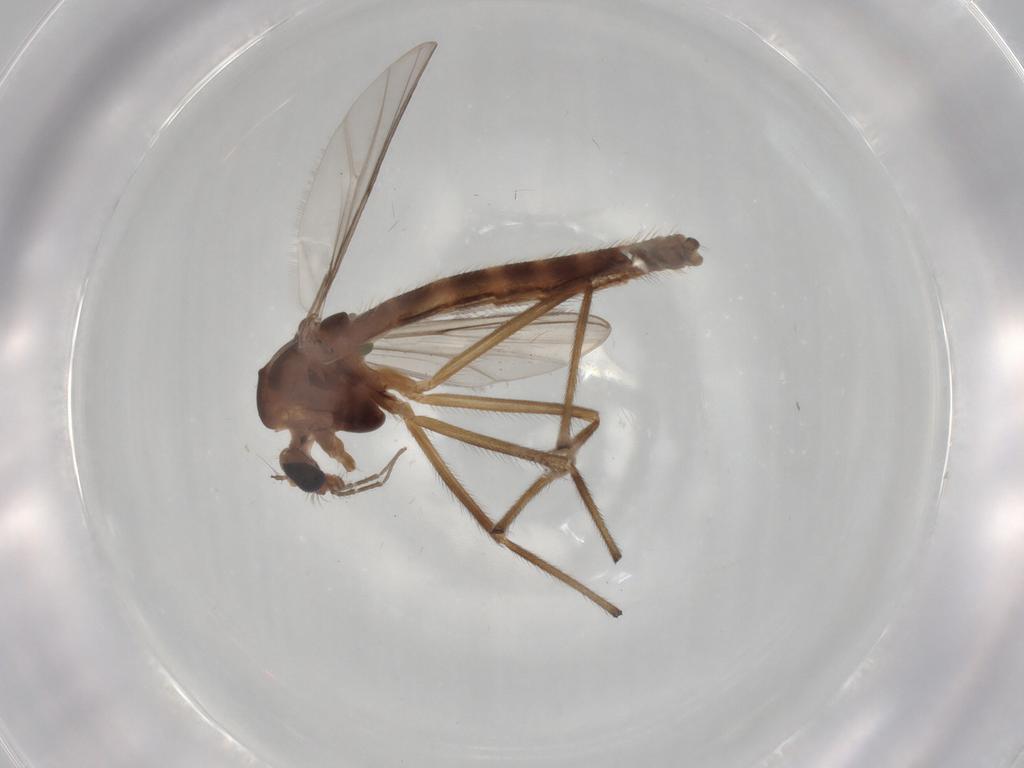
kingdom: Animalia
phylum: Arthropoda
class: Insecta
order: Diptera
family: Chironomidae
